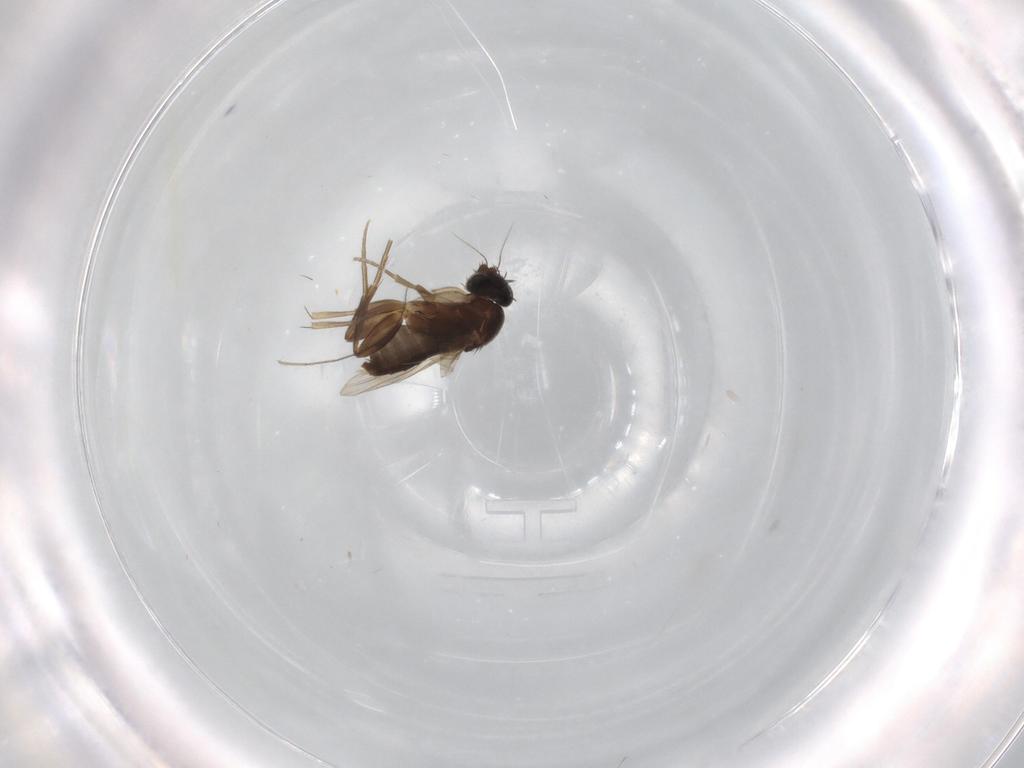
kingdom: Animalia
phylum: Arthropoda
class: Insecta
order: Diptera
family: Phoridae
